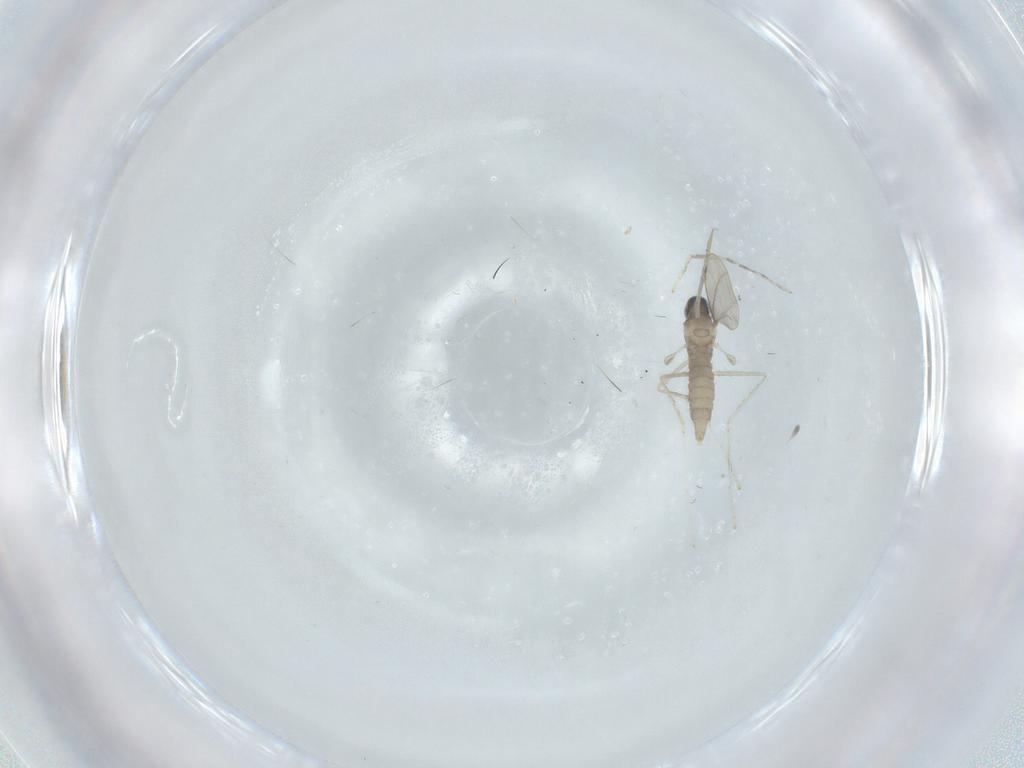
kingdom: Animalia
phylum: Arthropoda
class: Insecta
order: Diptera
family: Cecidomyiidae
